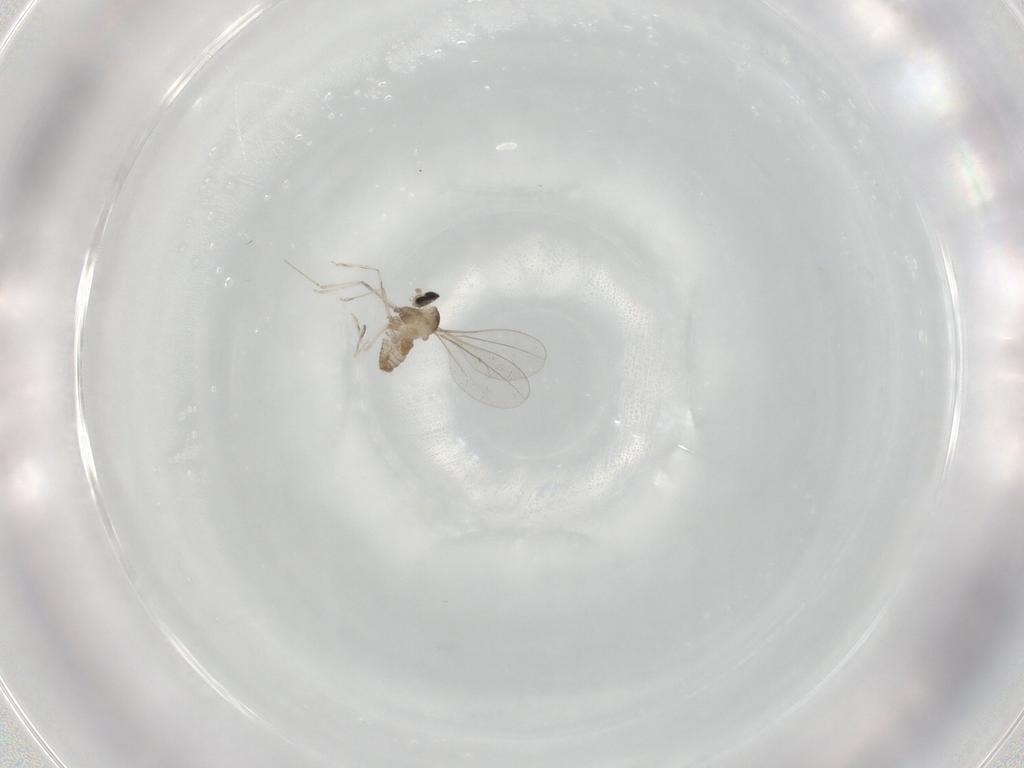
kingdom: Animalia
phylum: Arthropoda
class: Insecta
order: Diptera
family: Cecidomyiidae
